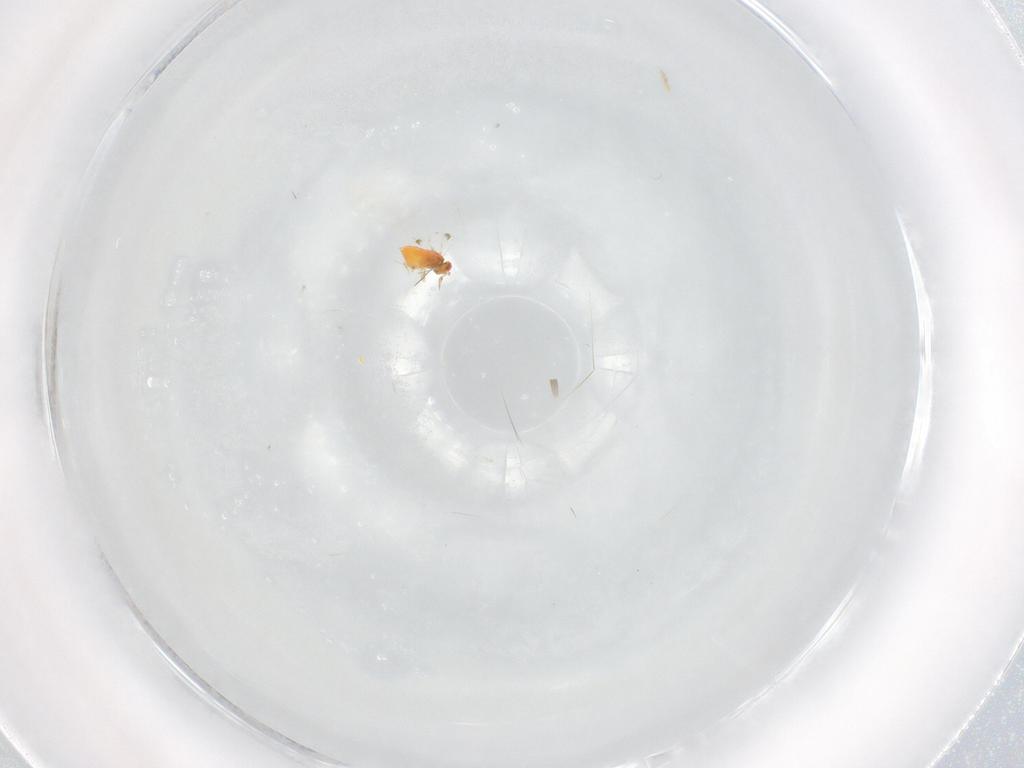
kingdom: Animalia
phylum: Arthropoda
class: Insecta
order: Hymenoptera
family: Trichogrammatidae
